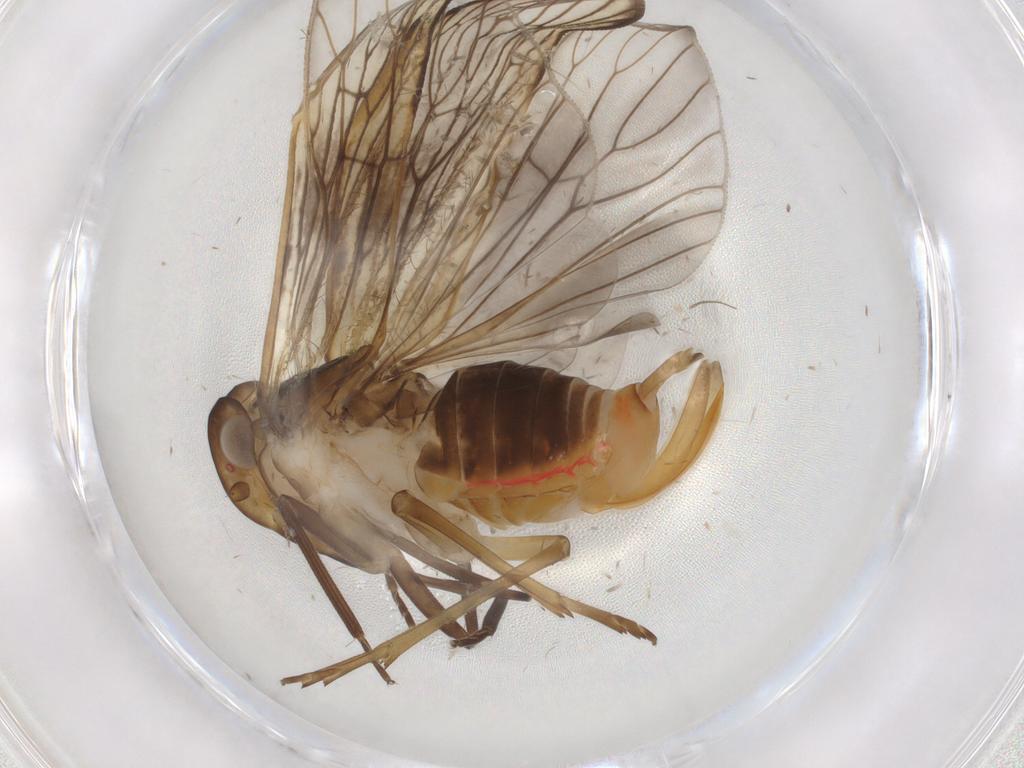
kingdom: Animalia
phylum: Arthropoda
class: Insecta
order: Hemiptera
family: Cixiidae
